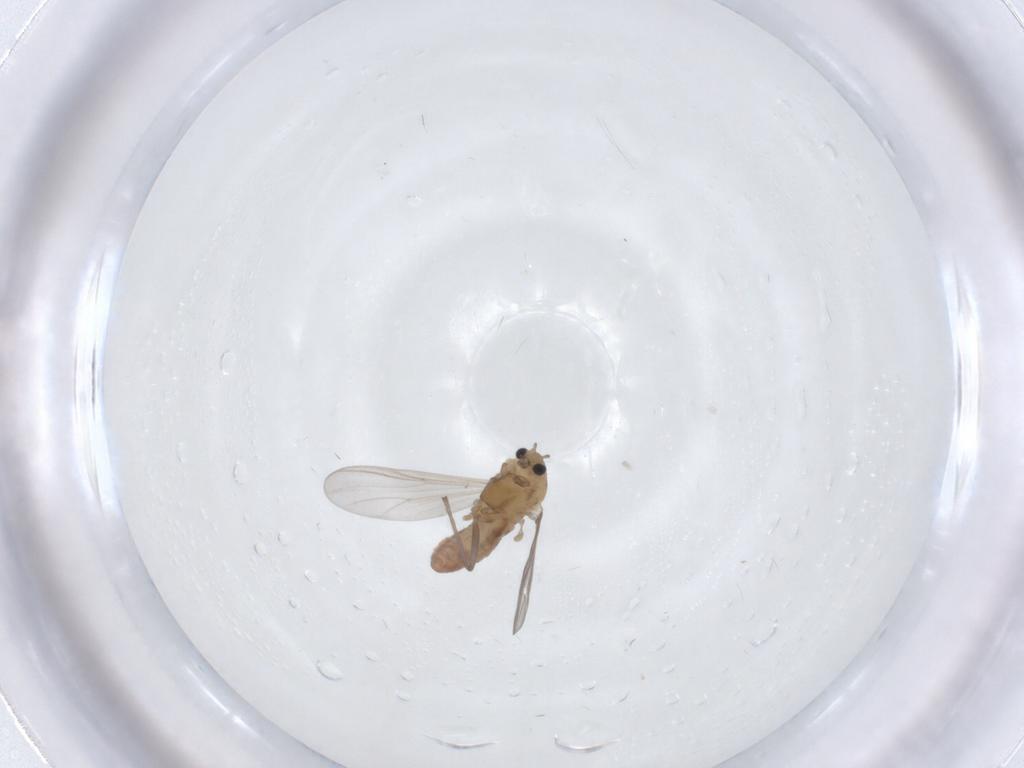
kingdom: Animalia
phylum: Arthropoda
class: Insecta
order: Diptera
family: Chironomidae
